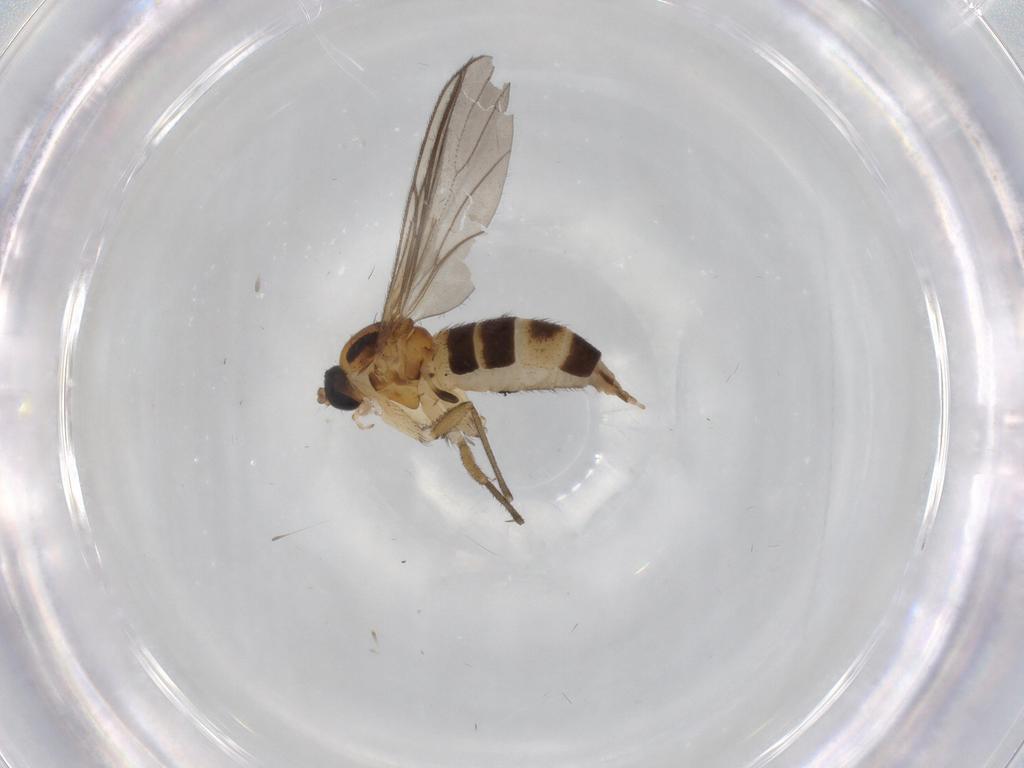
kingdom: Animalia
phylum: Arthropoda
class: Insecta
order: Diptera
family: Cecidomyiidae
